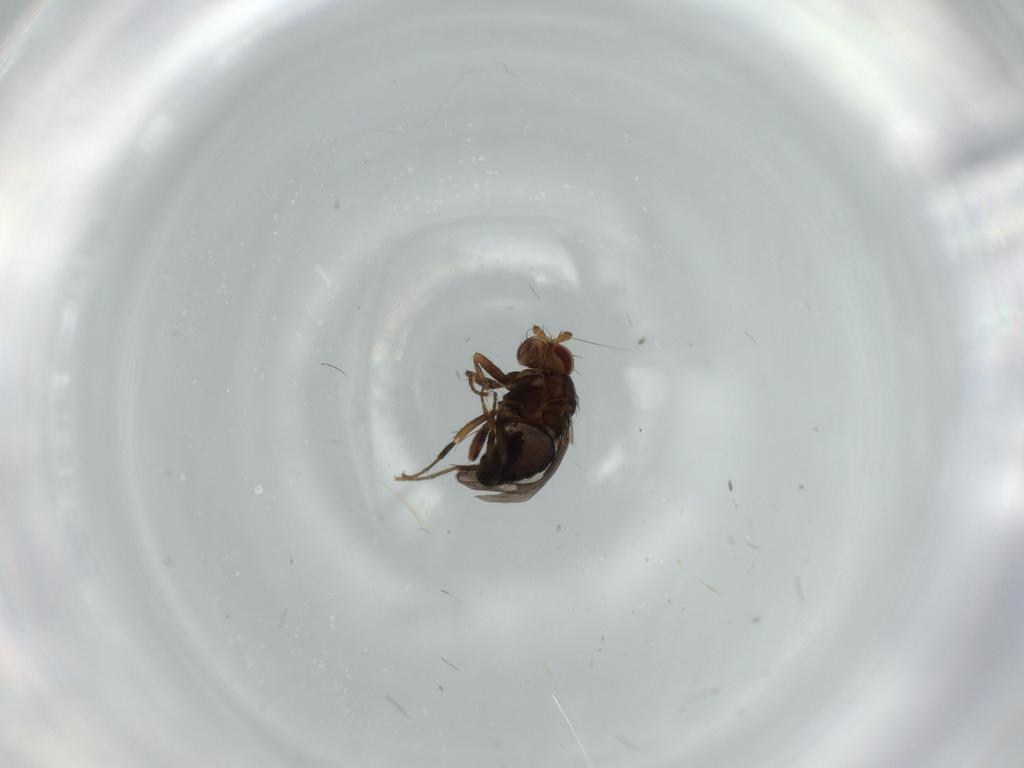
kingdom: Animalia
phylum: Arthropoda
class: Insecta
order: Diptera
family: Sphaeroceridae
